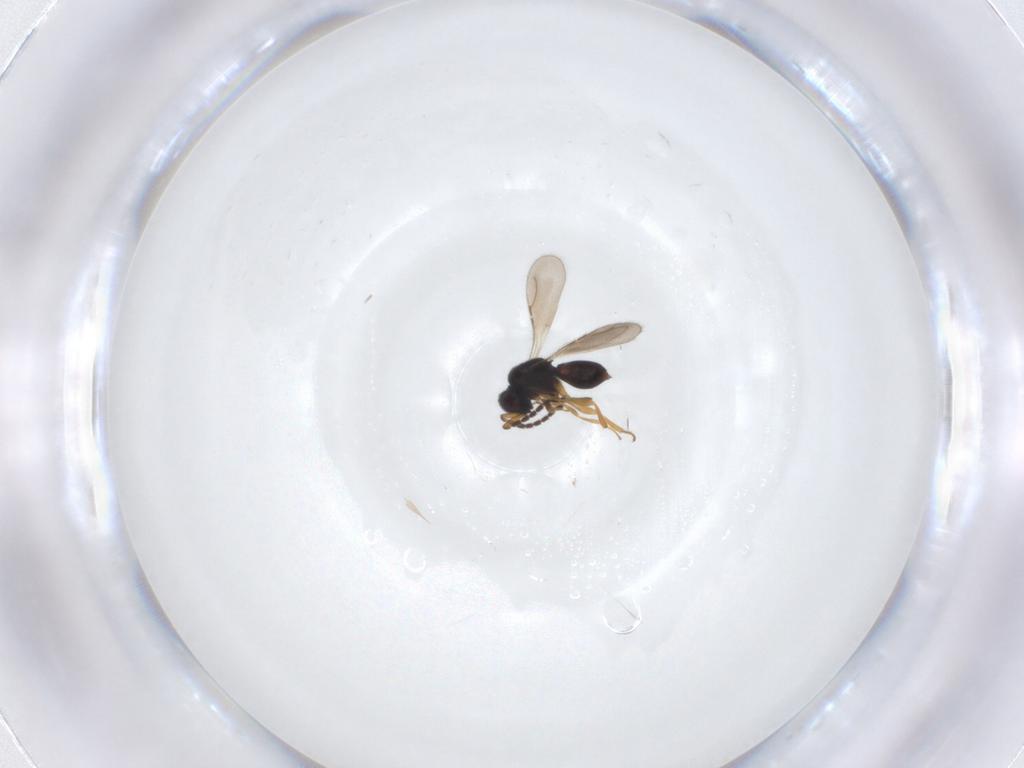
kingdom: Animalia
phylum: Arthropoda
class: Insecta
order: Hymenoptera
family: Ceraphronidae
